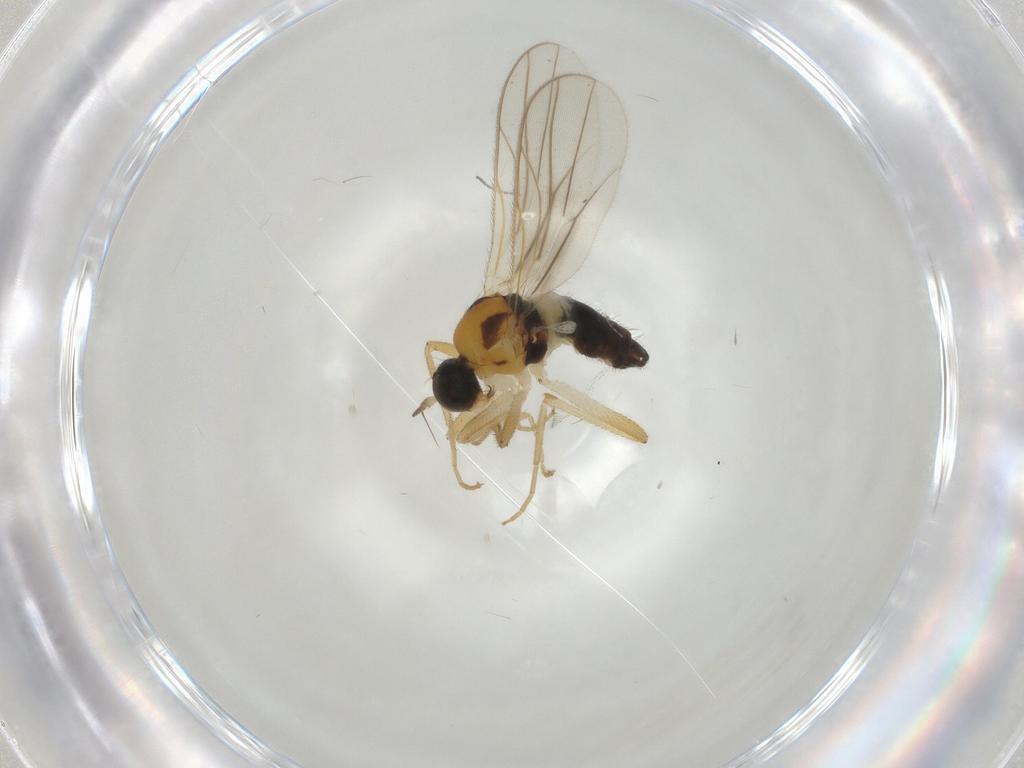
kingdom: Animalia
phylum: Arthropoda
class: Insecta
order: Diptera
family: Hybotidae
